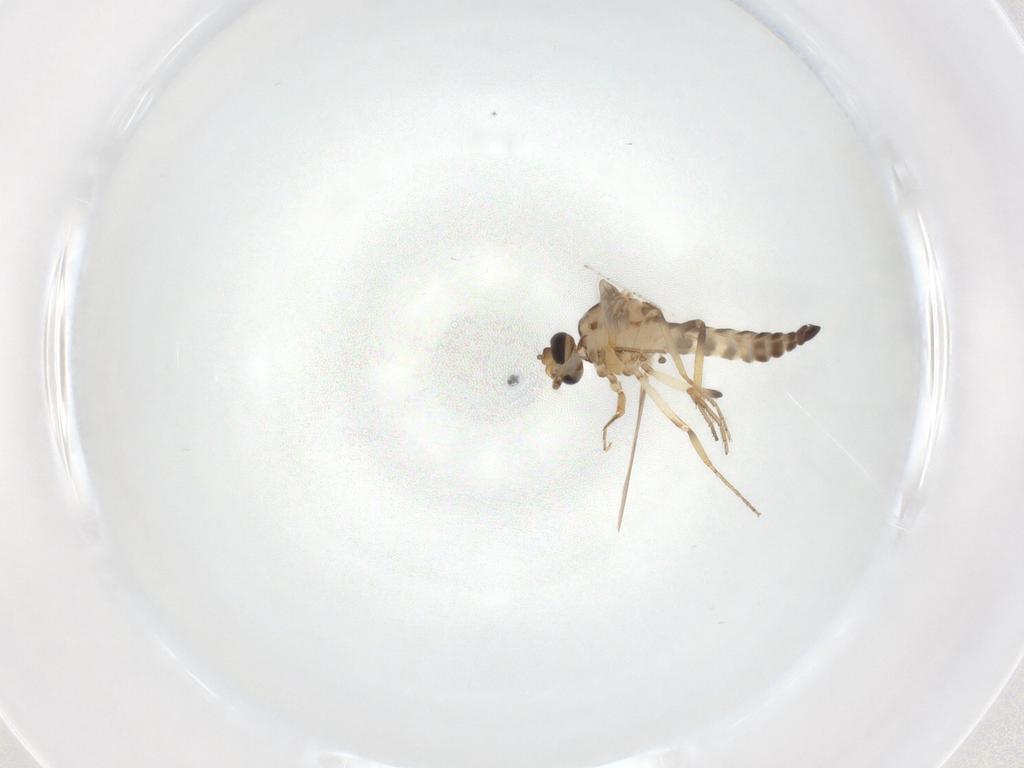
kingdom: Animalia
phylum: Arthropoda
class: Insecta
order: Diptera
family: Ceratopogonidae
